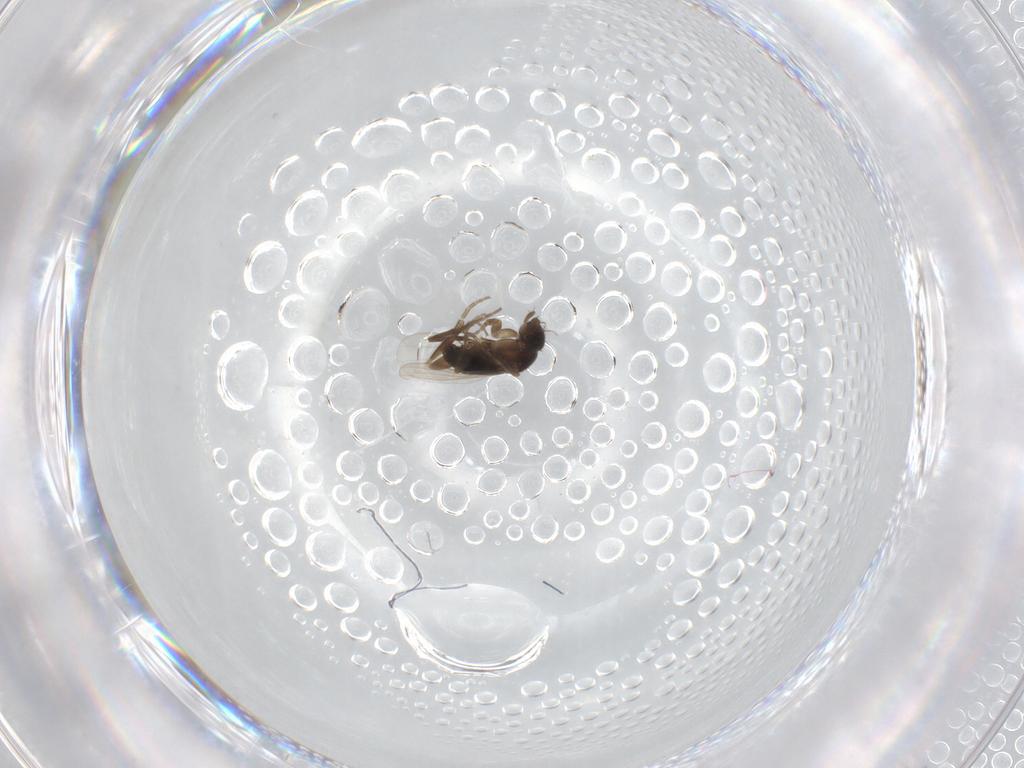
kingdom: Animalia
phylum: Arthropoda
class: Insecta
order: Diptera
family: Phoridae
